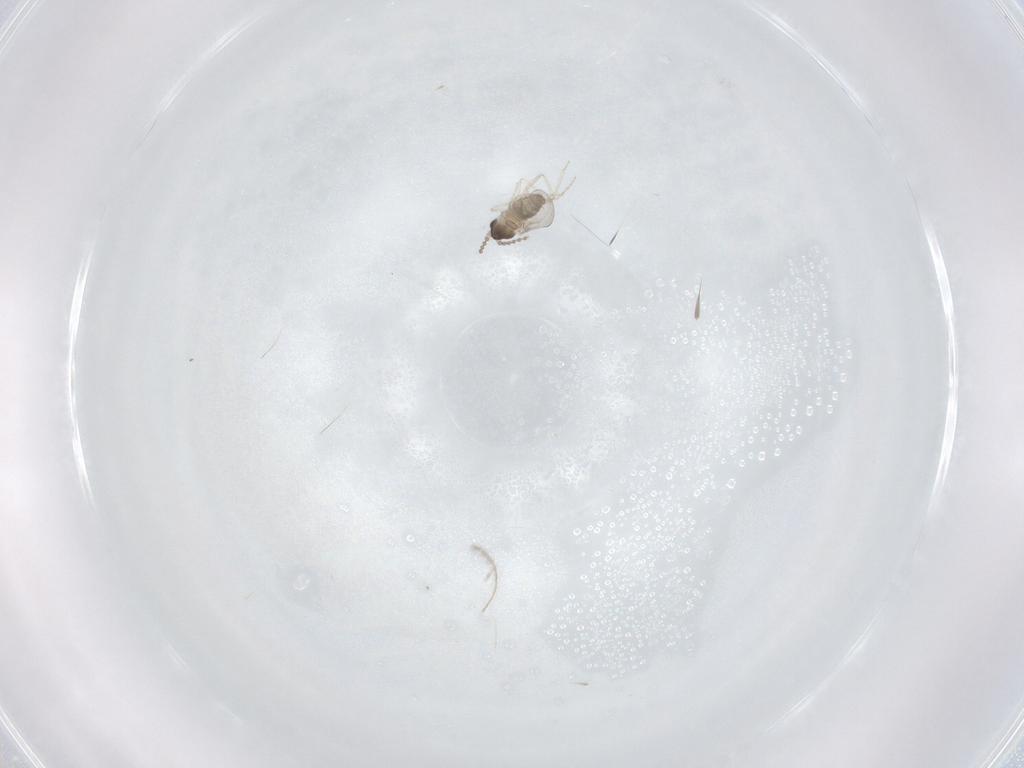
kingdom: Animalia
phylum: Arthropoda
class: Insecta
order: Diptera
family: Cecidomyiidae
